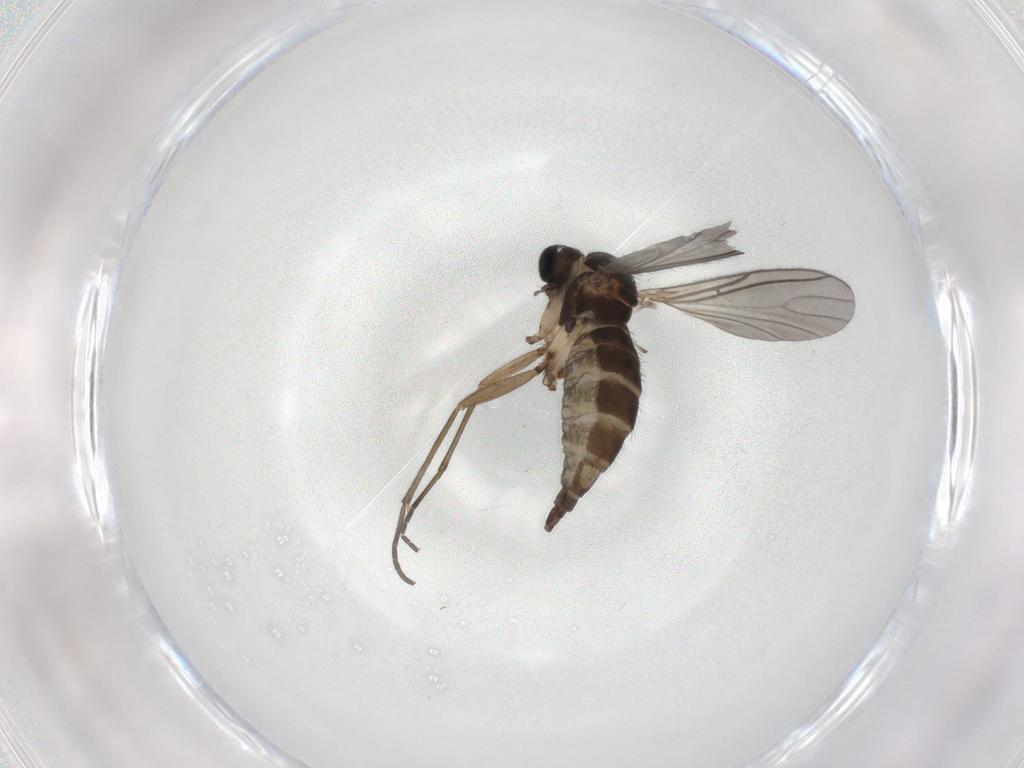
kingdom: Animalia
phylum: Arthropoda
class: Insecta
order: Diptera
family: Sciaridae
